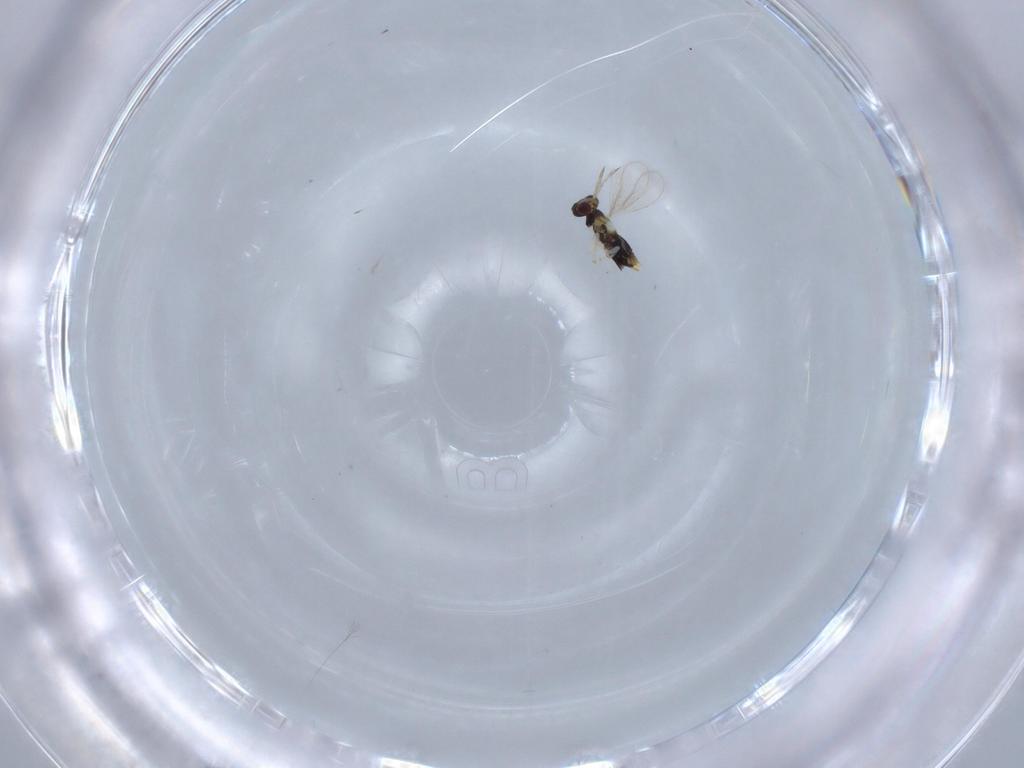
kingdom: Animalia
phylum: Arthropoda
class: Insecta
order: Hymenoptera
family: Aphelinidae
